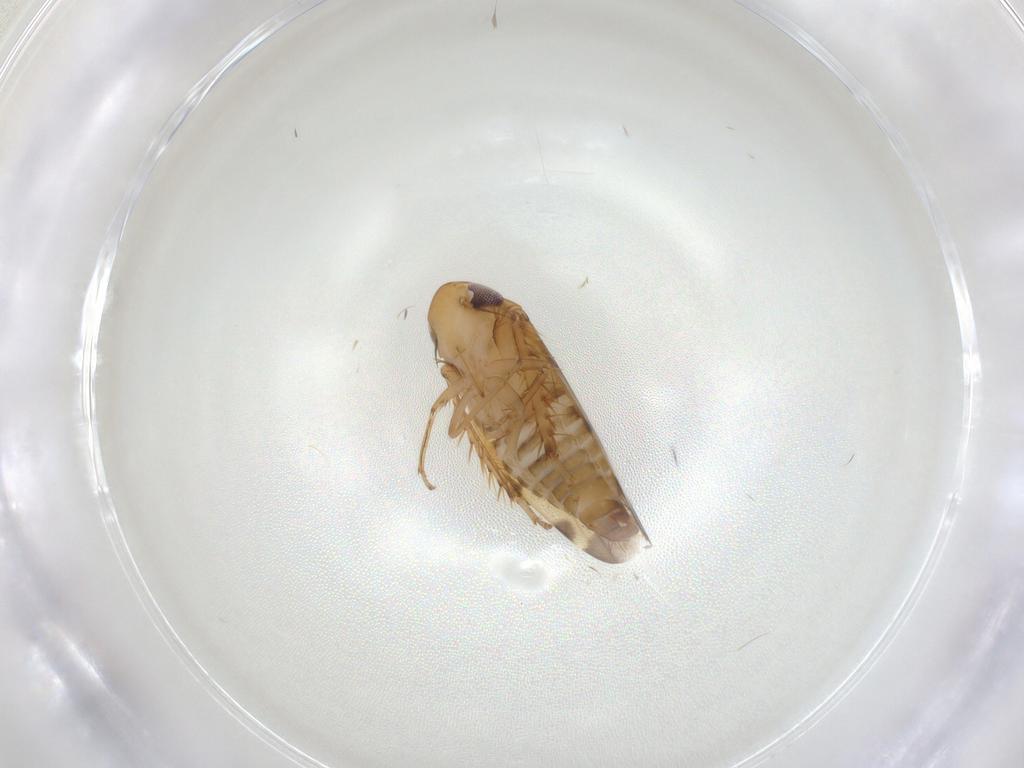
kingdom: Animalia
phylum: Arthropoda
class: Insecta
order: Hemiptera
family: Cicadellidae
